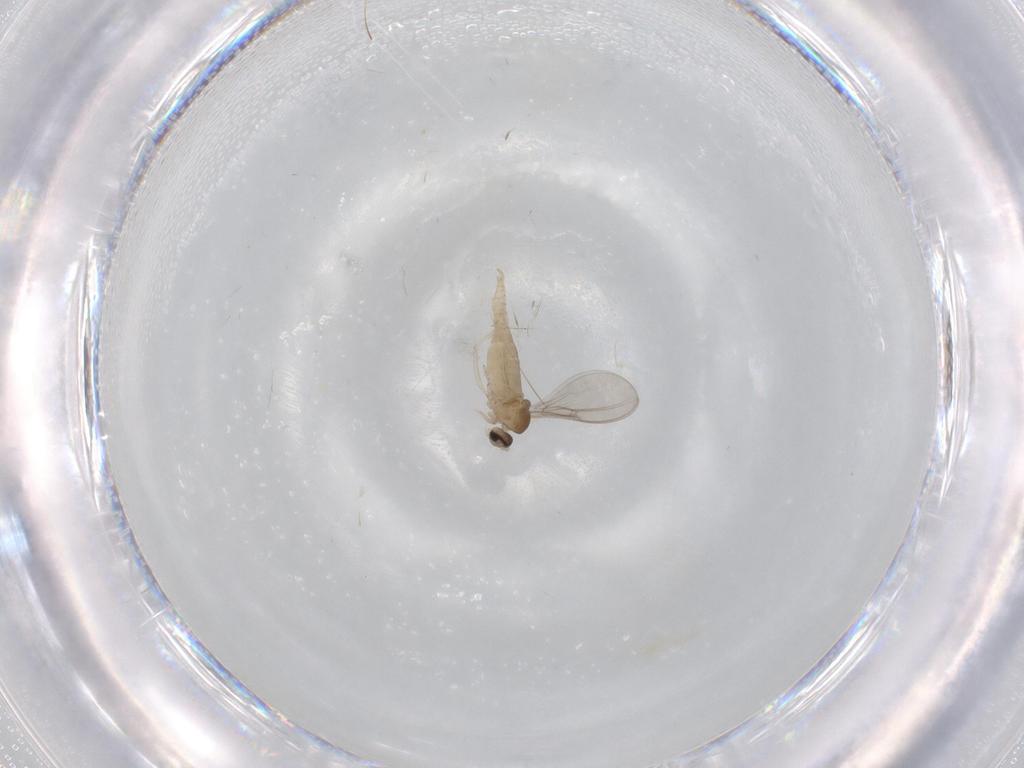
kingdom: Animalia
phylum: Arthropoda
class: Insecta
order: Diptera
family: Cecidomyiidae
